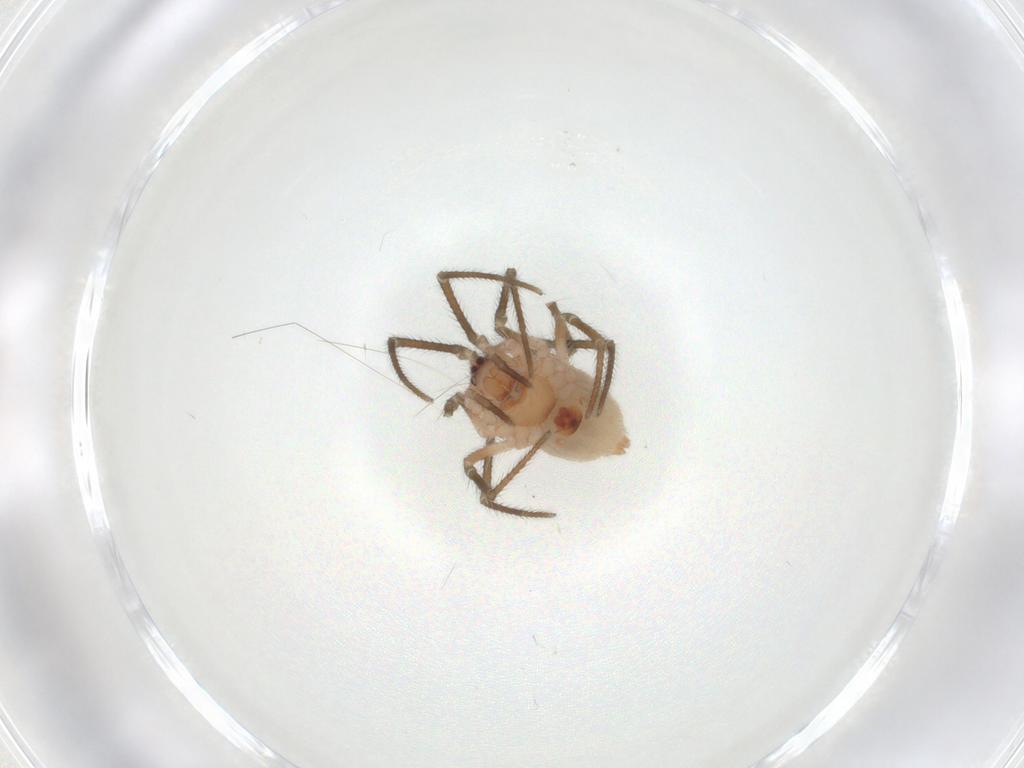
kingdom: Animalia
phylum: Arthropoda
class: Arachnida
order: Araneae
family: Theridiidae
